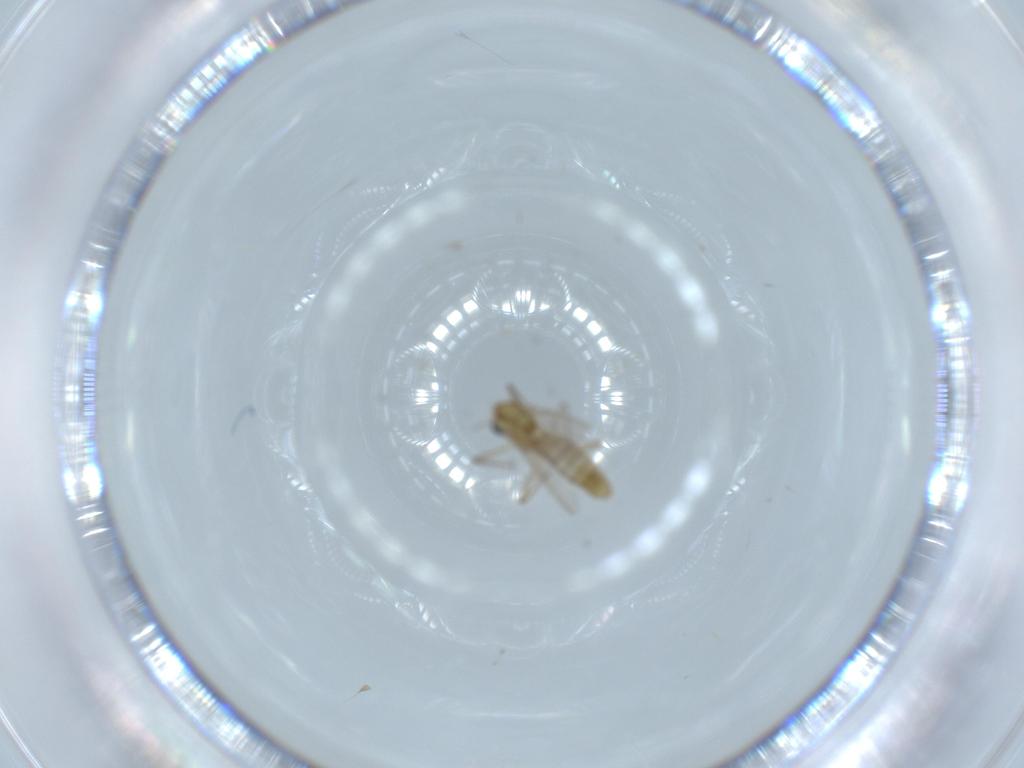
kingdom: Animalia
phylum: Arthropoda
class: Insecta
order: Diptera
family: Chironomidae
